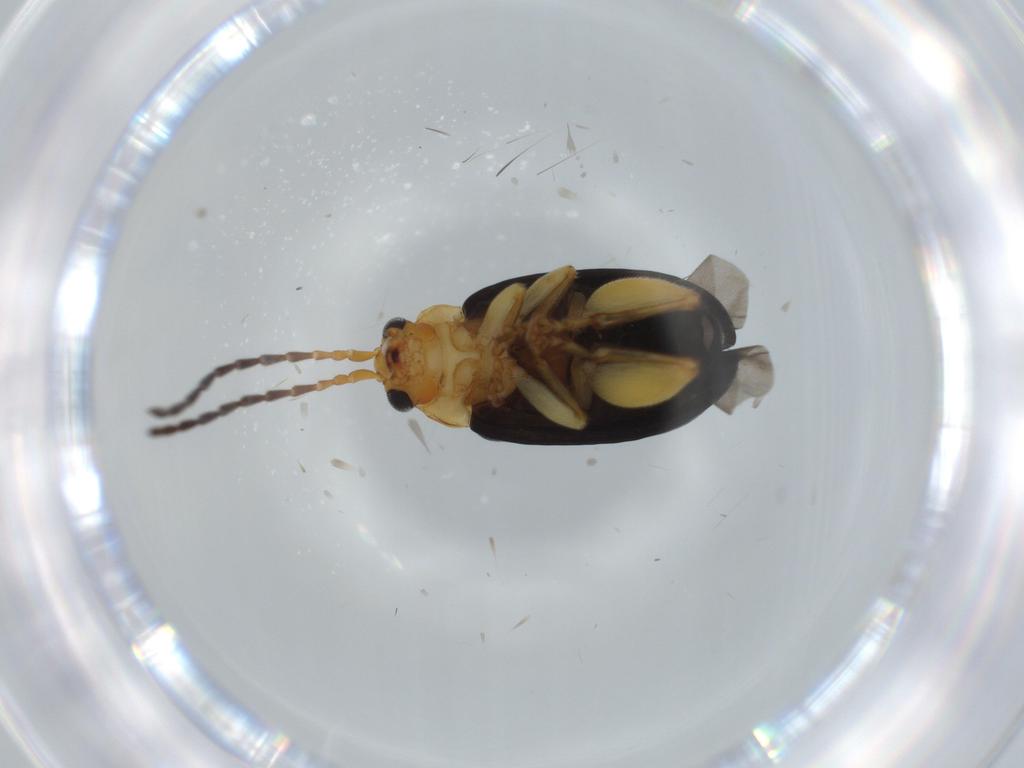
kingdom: Animalia
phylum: Arthropoda
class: Insecta
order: Coleoptera
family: Chrysomelidae
